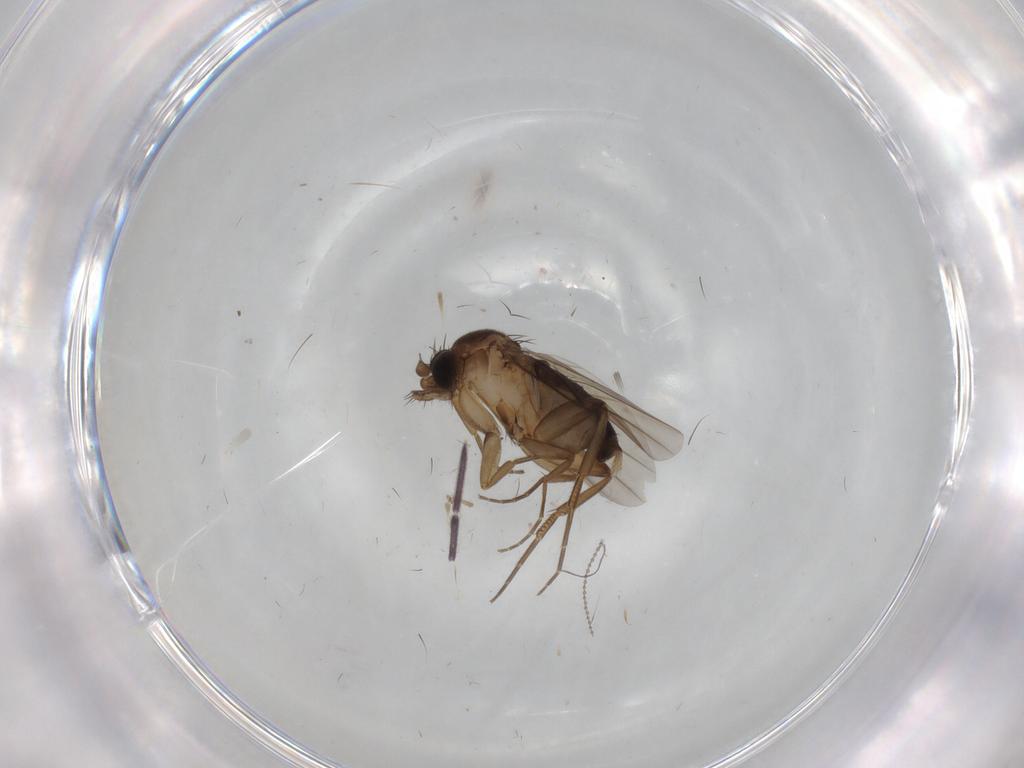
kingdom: Animalia
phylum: Arthropoda
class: Insecta
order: Diptera
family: Phoridae
